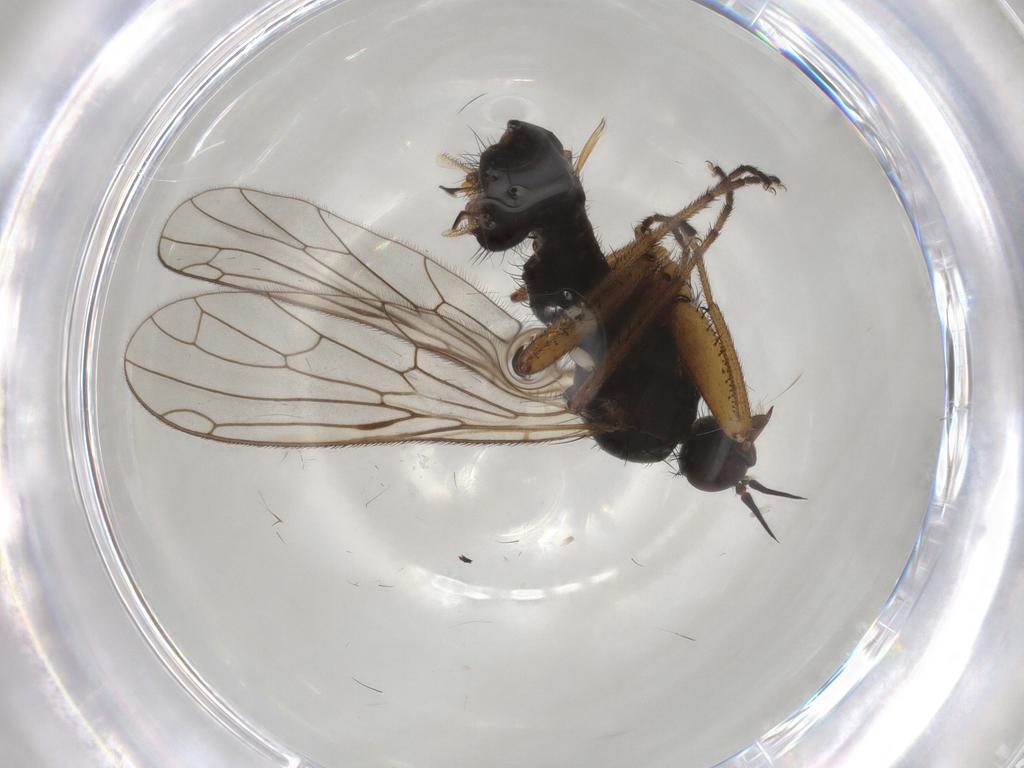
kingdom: Animalia
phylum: Arthropoda
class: Insecta
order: Diptera
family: Empididae
